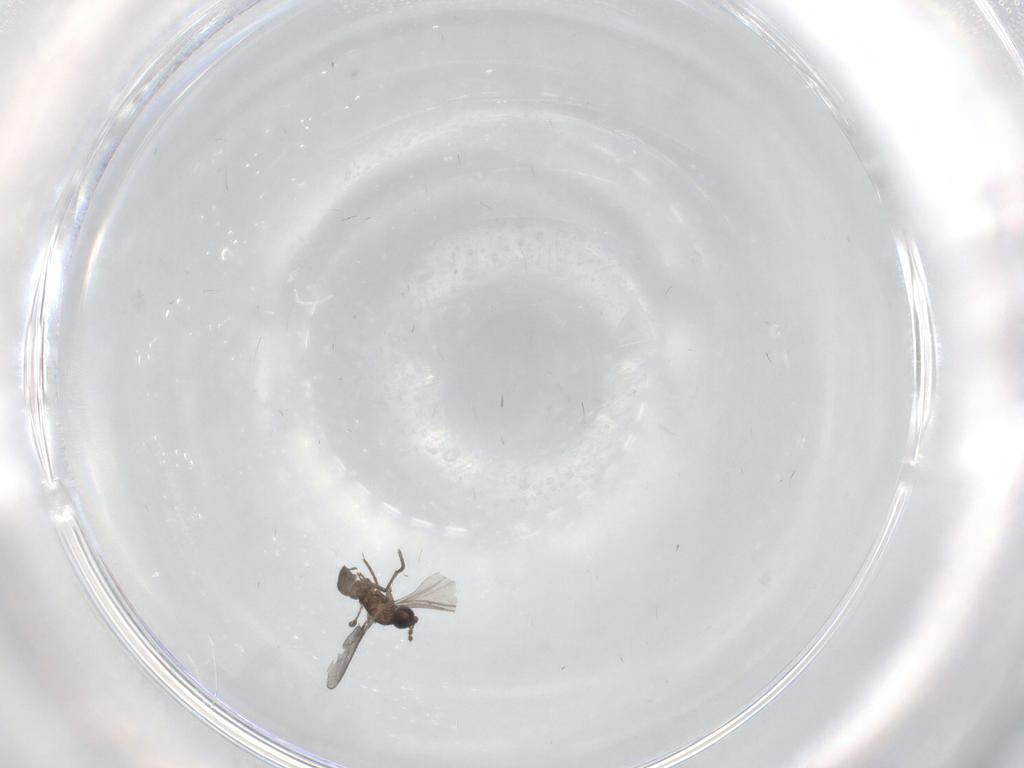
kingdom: Animalia
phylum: Arthropoda
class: Insecta
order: Diptera
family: Sciaridae
